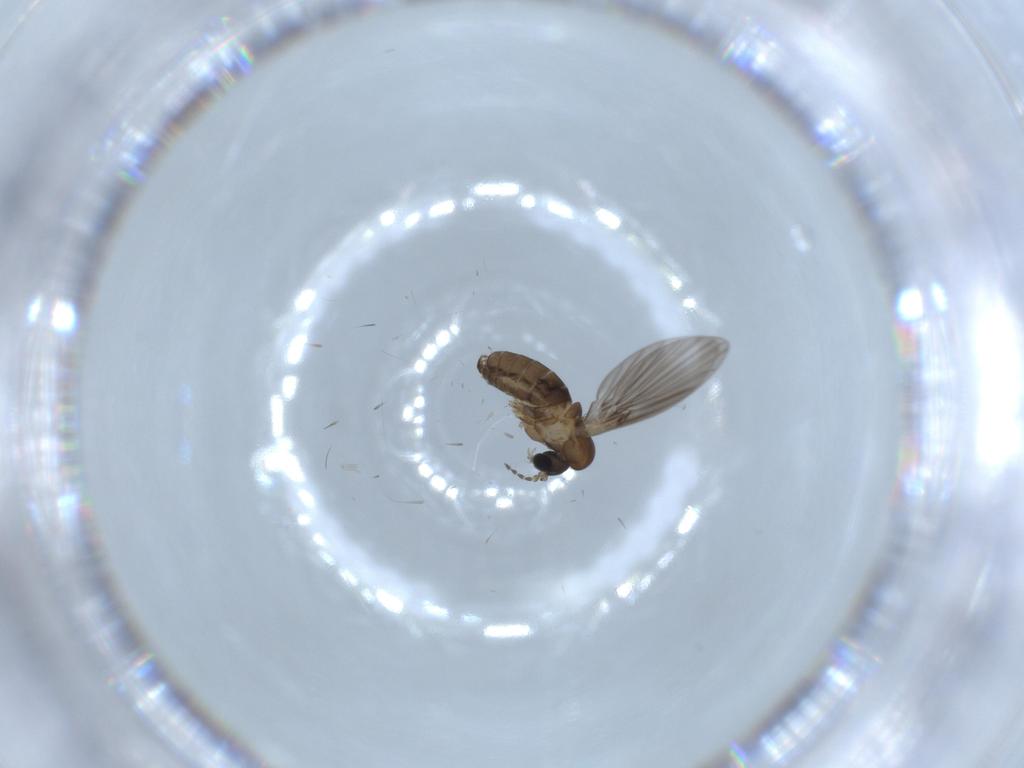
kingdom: Animalia
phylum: Arthropoda
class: Insecta
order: Diptera
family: Psychodidae
